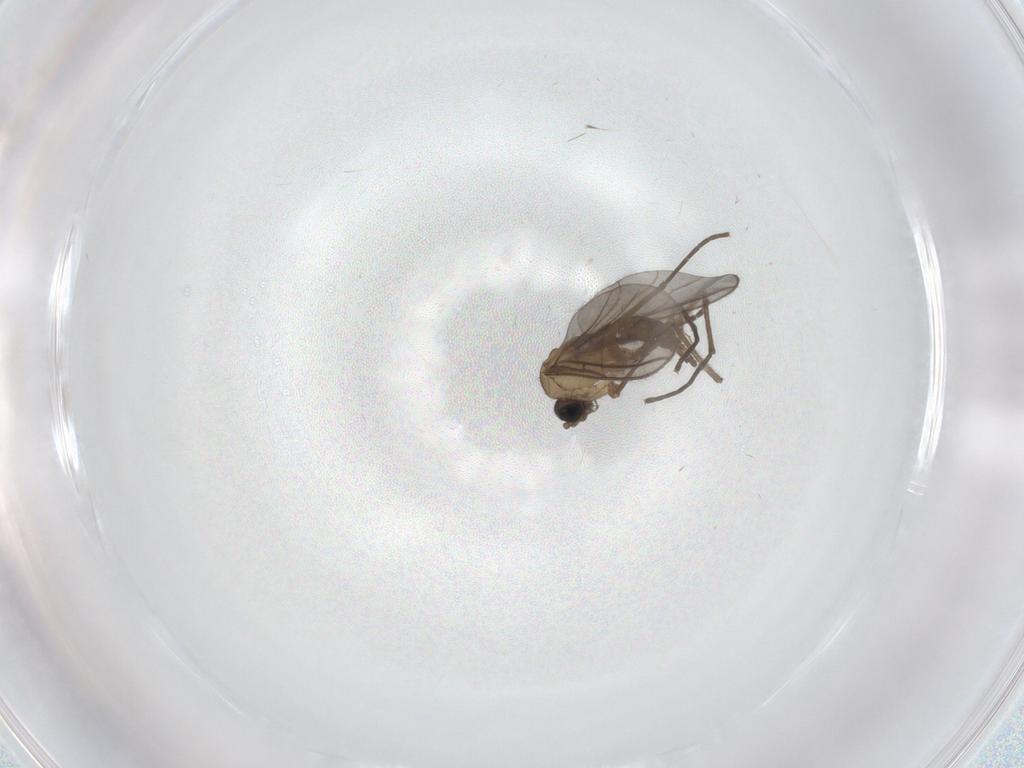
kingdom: Animalia
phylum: Arthropoda
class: Insecta
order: Diptera
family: Sciaridae
